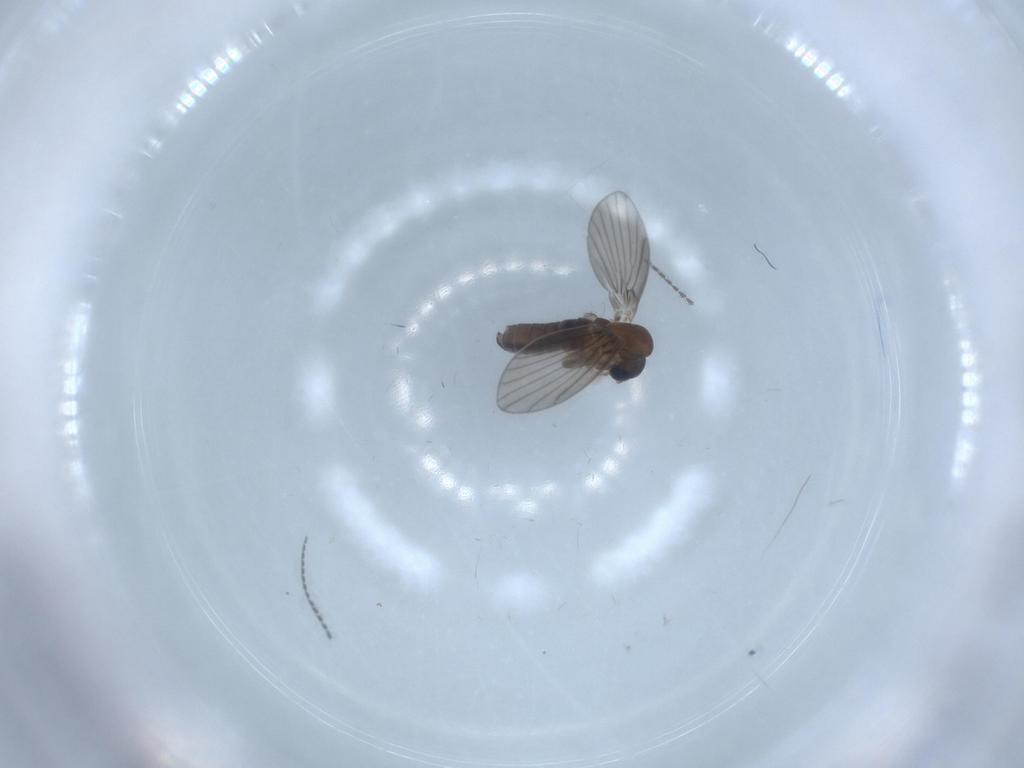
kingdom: Animalia
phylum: Arthropoda
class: Insecta
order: Diptera
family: Psychodidae
